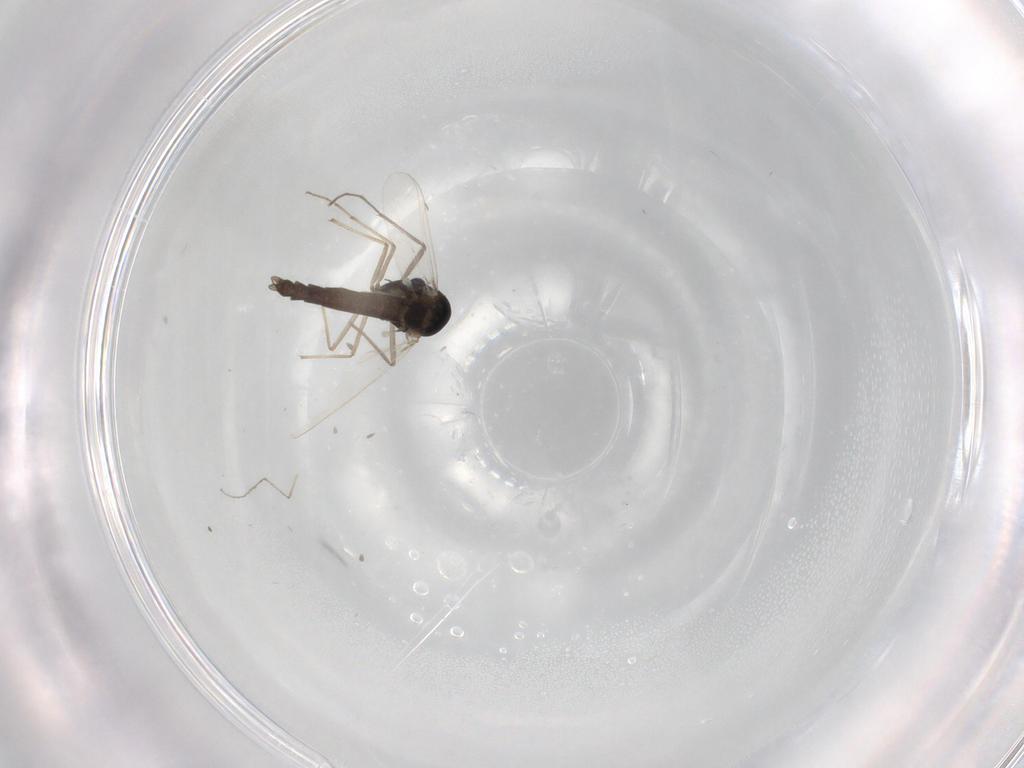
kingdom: Animalia
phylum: Arthropoda
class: Insecta
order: Diptera
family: Chironomidae
